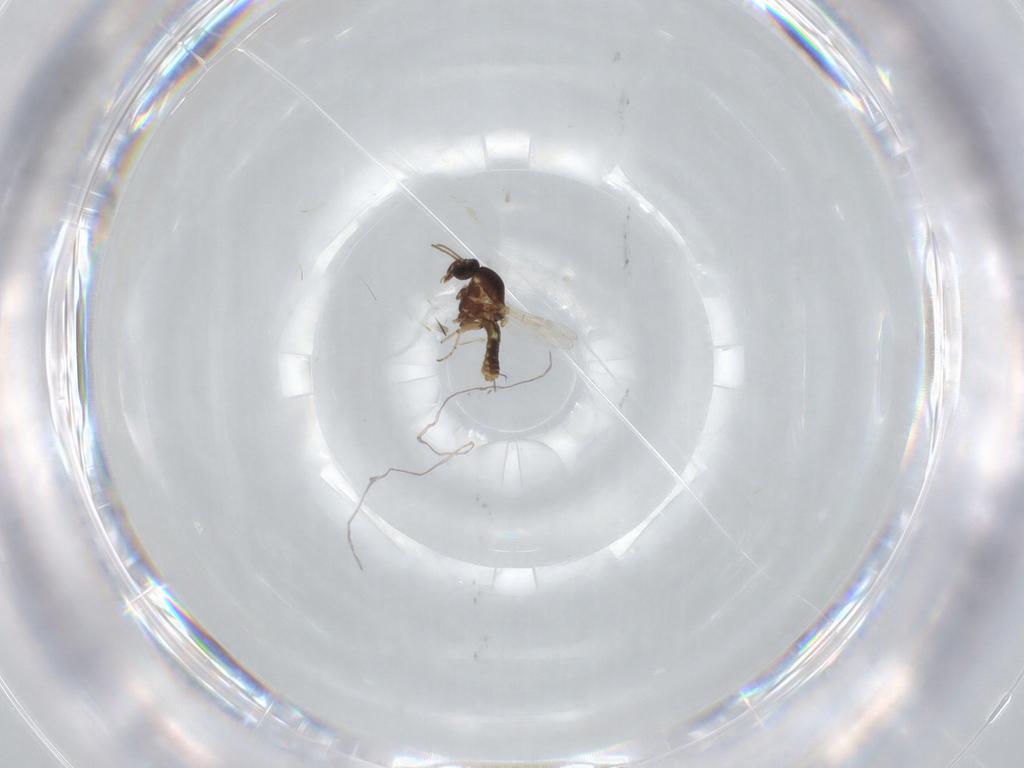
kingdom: Animalia
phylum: Arthropoda
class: Insecta
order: Diptera
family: Ceratopogonidae
